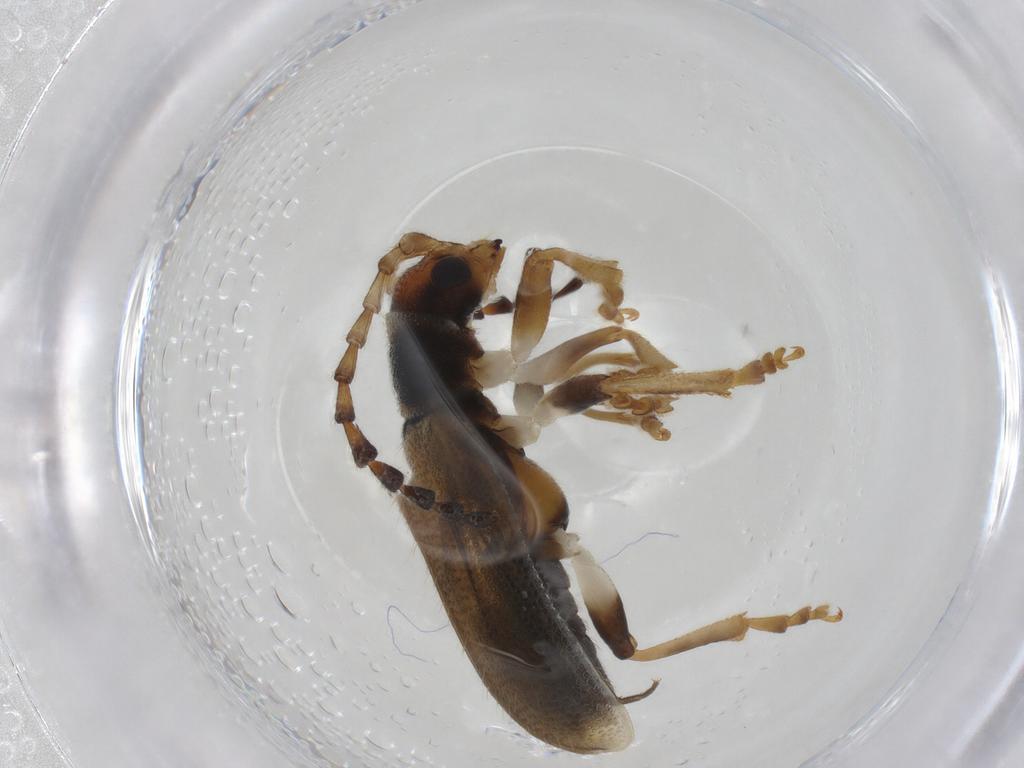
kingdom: Animalia
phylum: Arthropoda
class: Insecta
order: Coleoptera
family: Chrysomelidae
